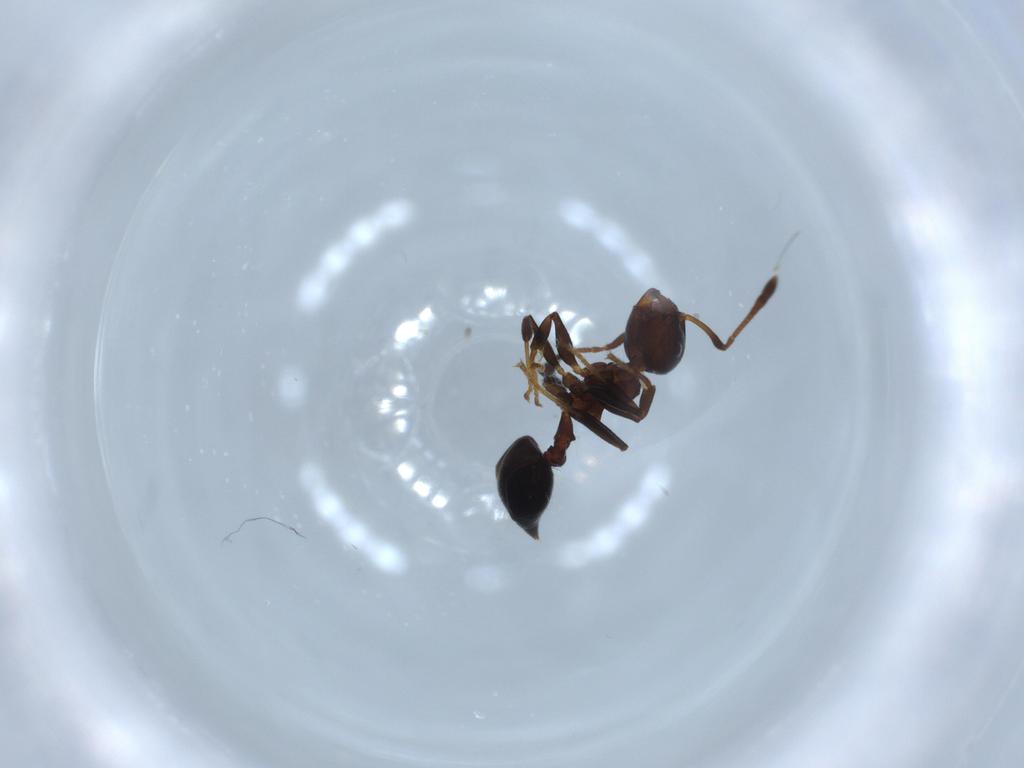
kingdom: Animalia
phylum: Arthropoda
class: Insecta
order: Hymenoptera
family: Formicidae
